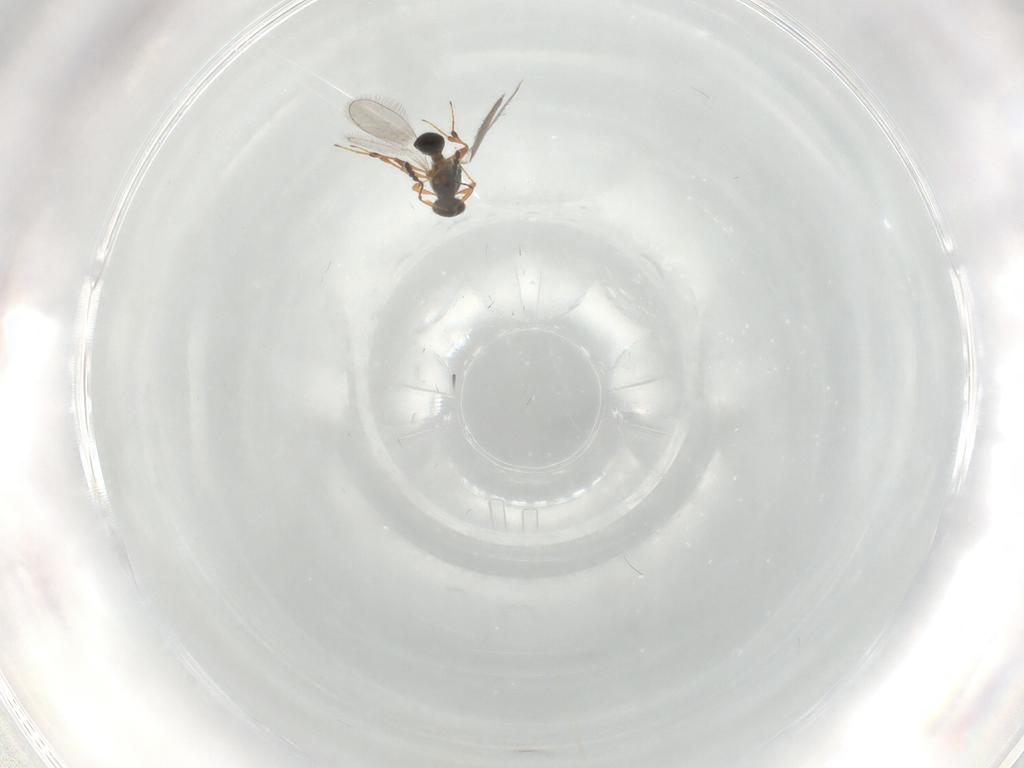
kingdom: Animalia
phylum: Arthropoda
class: Insecta
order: Hymenoptera
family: Platygastridae
